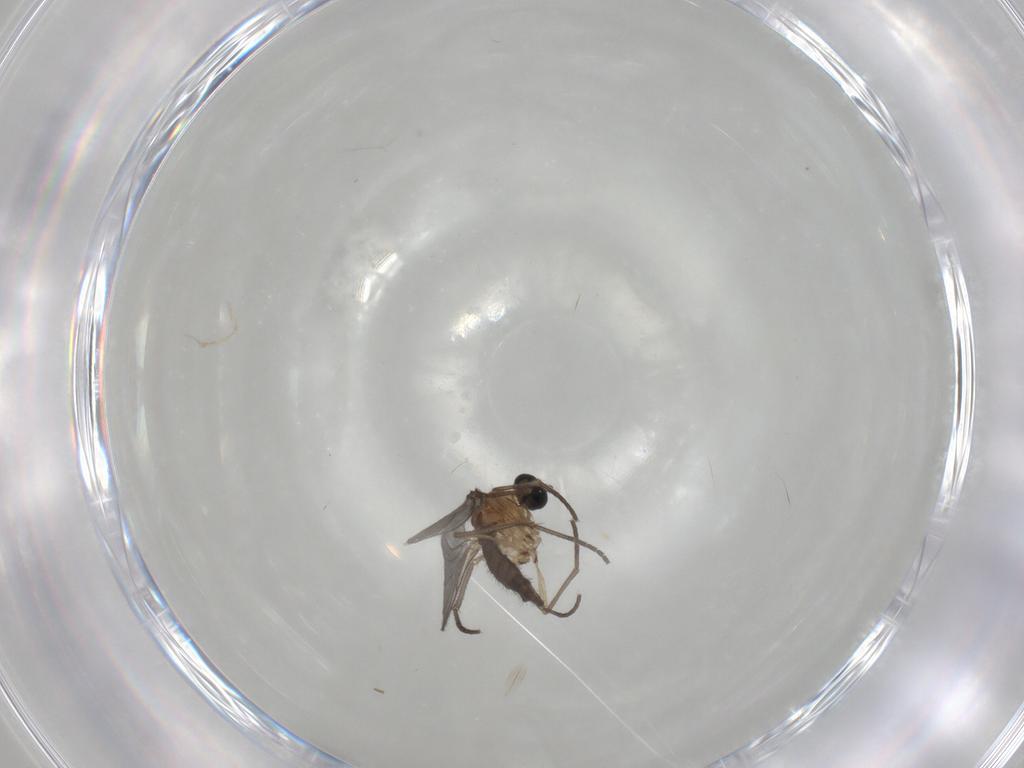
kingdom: Animalia
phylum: Arthropoda
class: Insecta
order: Diptera
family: Sciaridae
